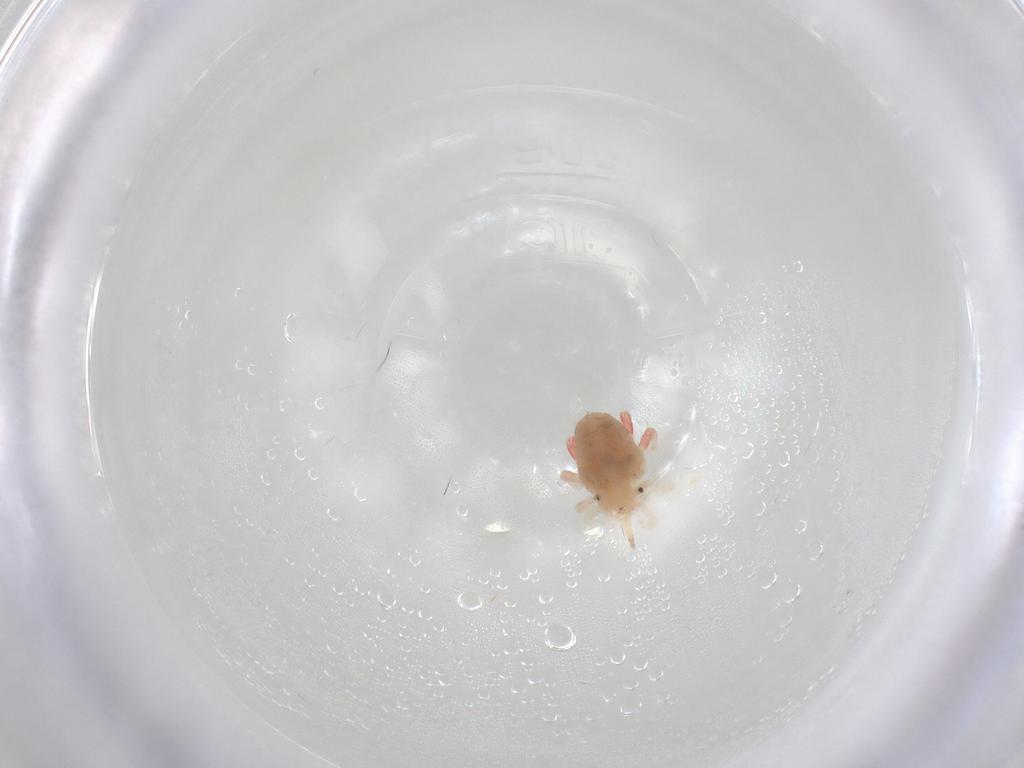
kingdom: Animalia
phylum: Arthropoda
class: Arachnida
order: Trombidiformes
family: Bdellidae
